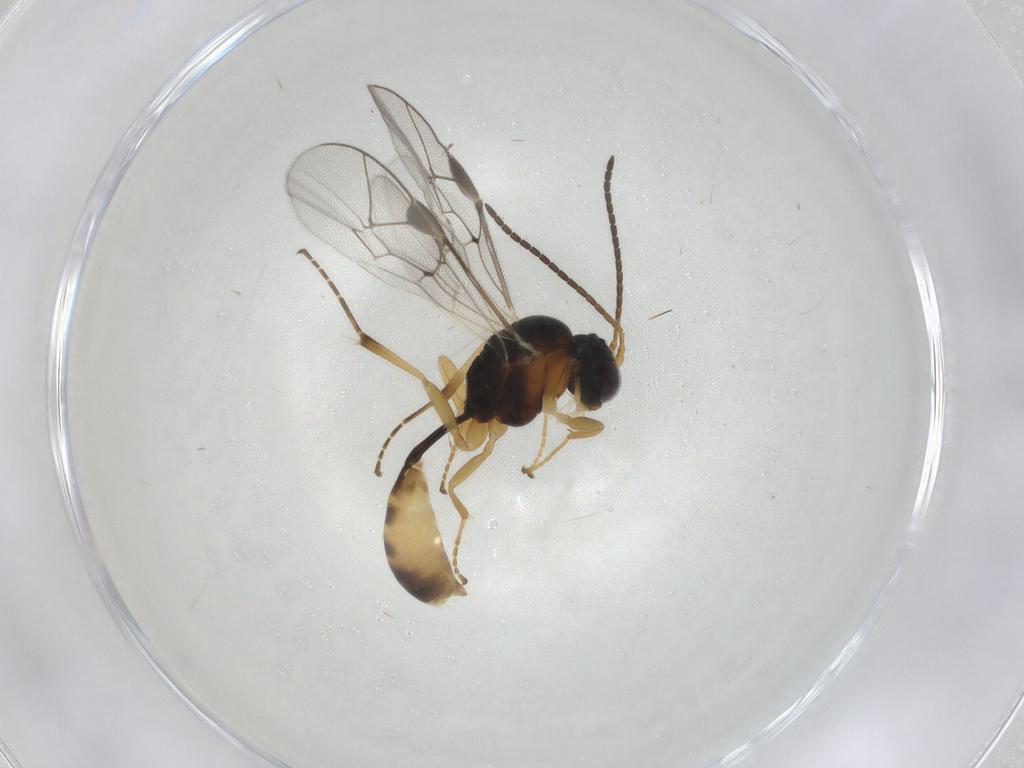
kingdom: Animalia
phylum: Arthropoda
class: Insecta
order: Hymenoptera
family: Ichneumonidae
